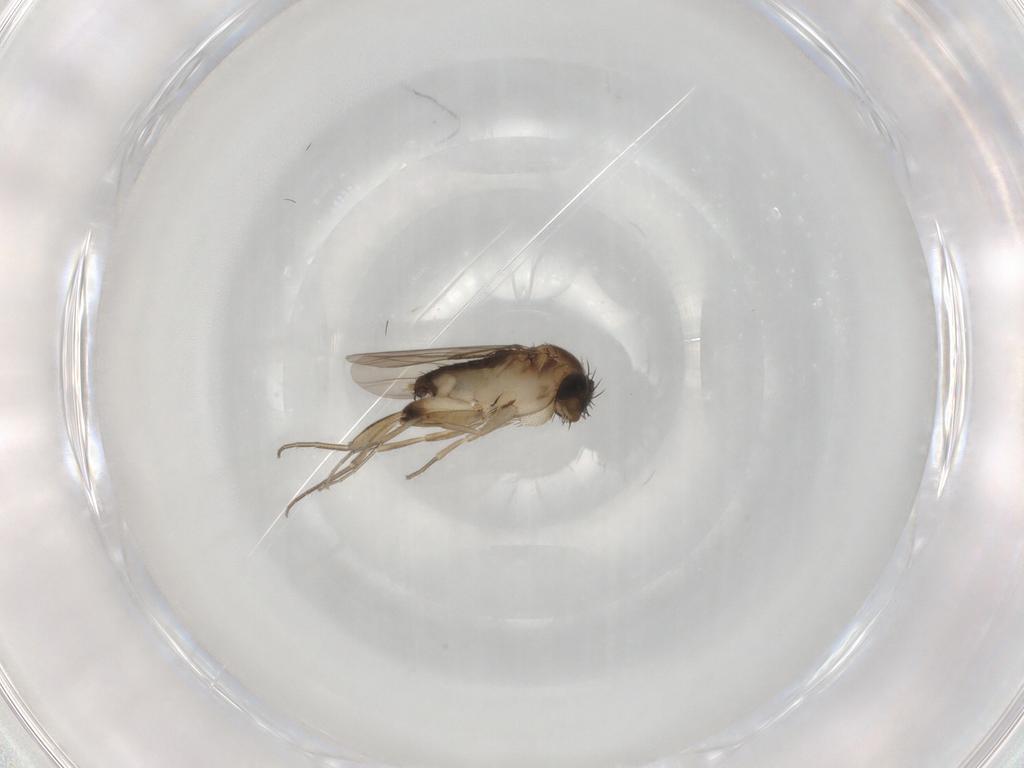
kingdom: Animalia
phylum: Arthropoda
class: Insecta
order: Diptera
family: Phoridae
